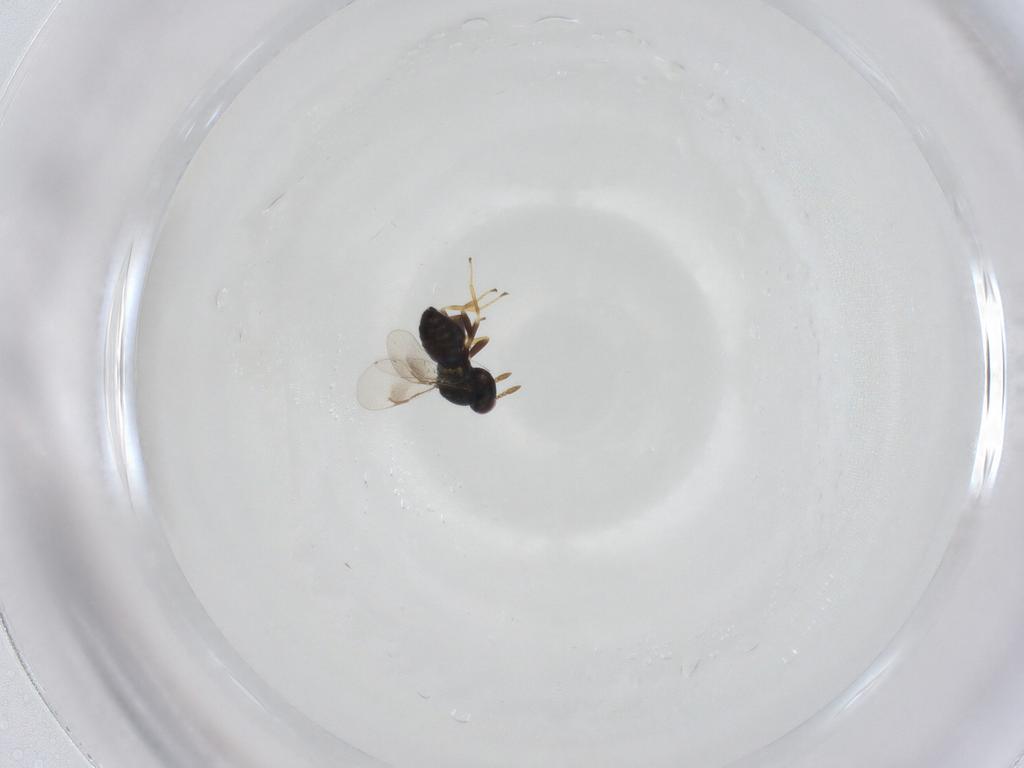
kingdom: Animalia
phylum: Arthropoda
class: Insecta
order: Hymenoptera
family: Pteromalidae
